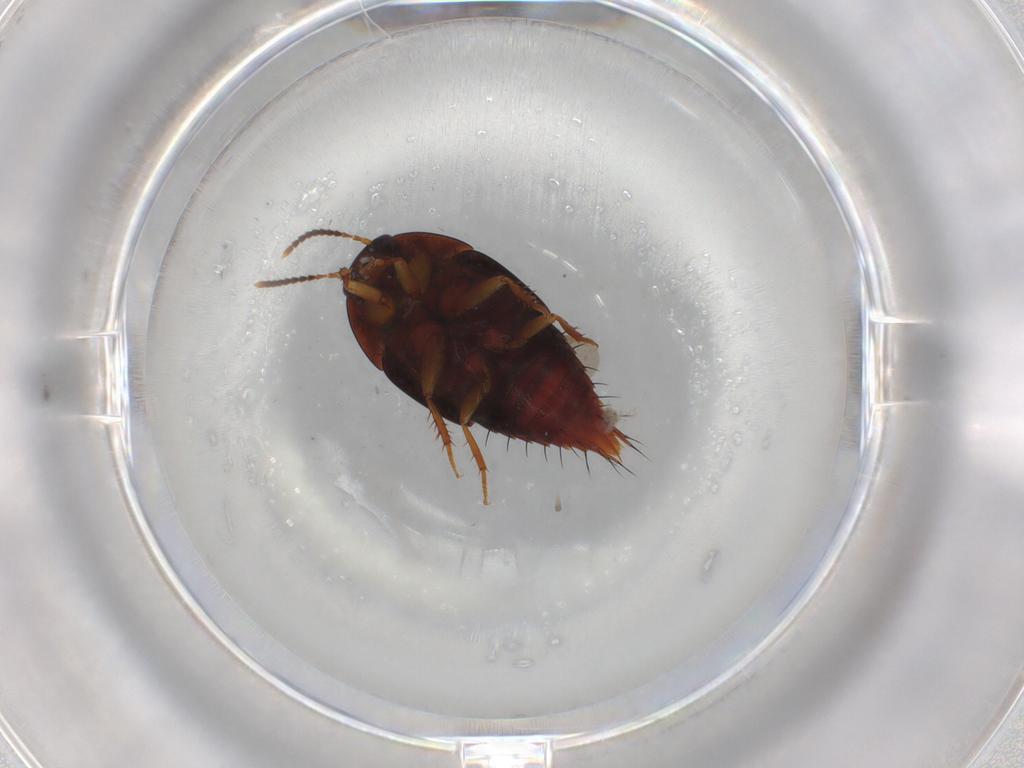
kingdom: Animalia
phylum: Arthropoda
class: Insecta
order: Coleoptera
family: Staphylinidae
